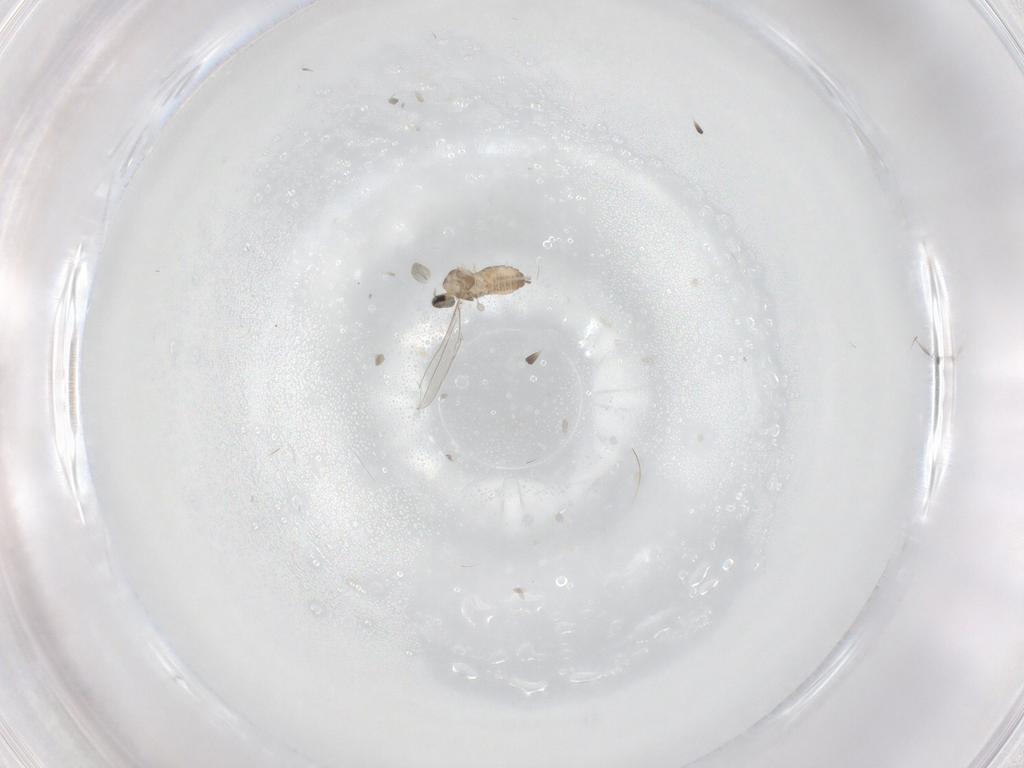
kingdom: Animalia
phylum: Arthropoda
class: Insecta
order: Diptera
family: Cecidomyiidae
